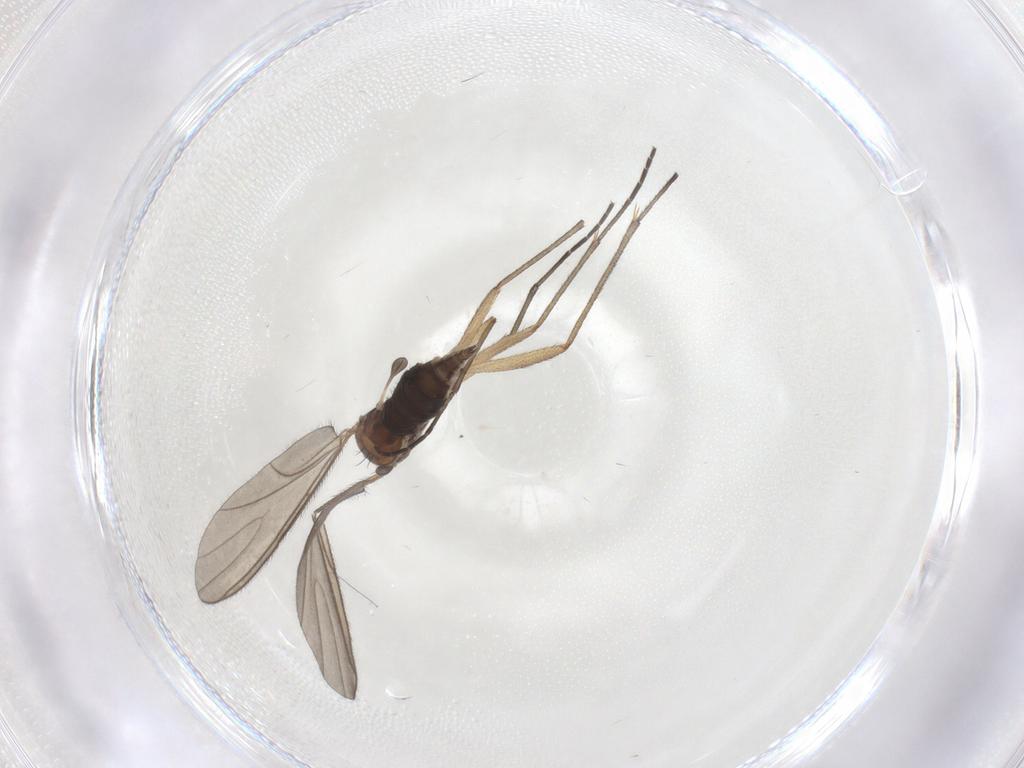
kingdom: Animalia
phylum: Arthropoda
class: Insecta
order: Diptera
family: Sciaridae
